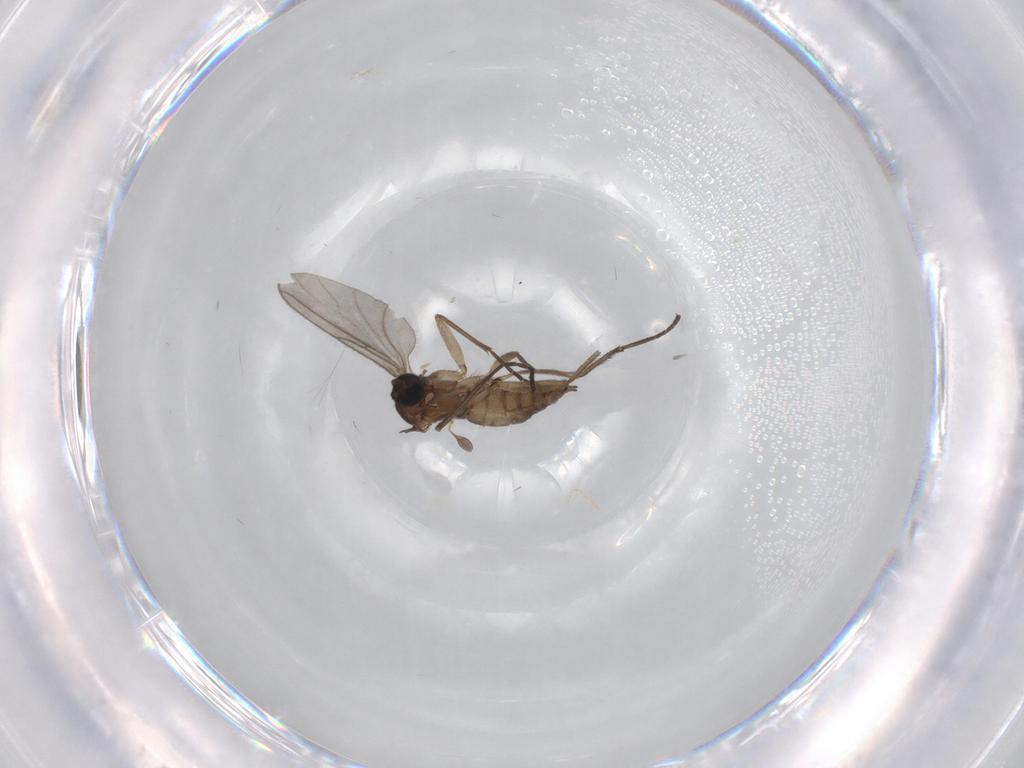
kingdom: Animalia
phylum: Arthropoda
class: Insecta
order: Diptera
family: Sciaridae
